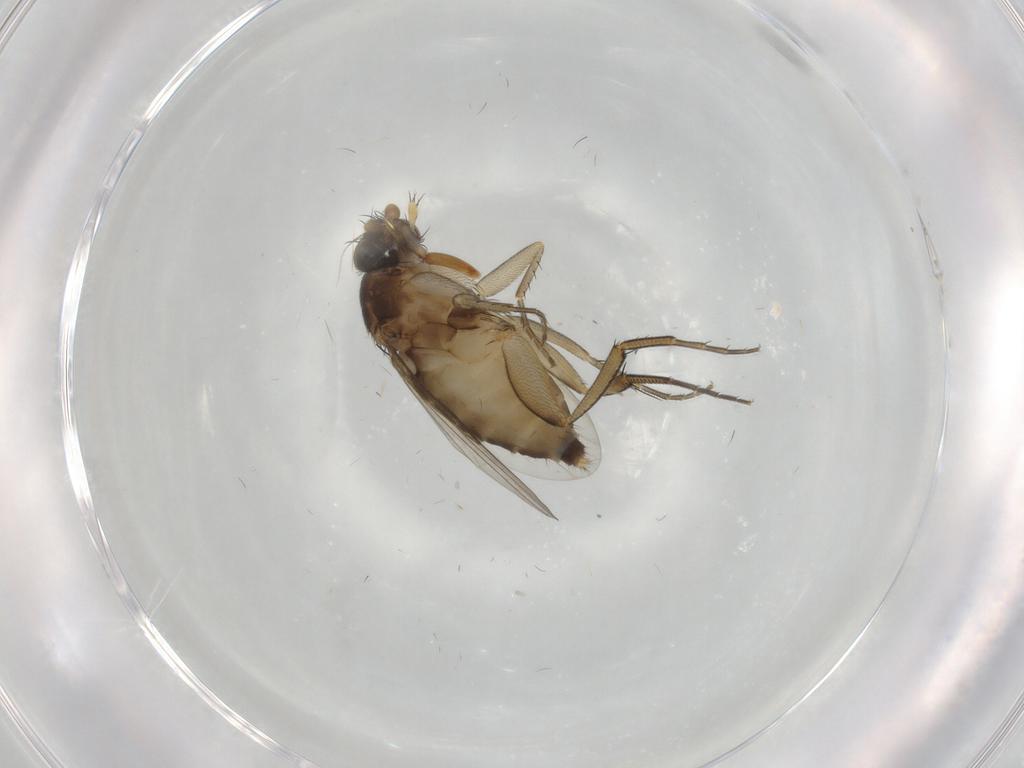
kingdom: Animalia
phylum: Arthropoda
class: Insecta
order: Diptera
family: Phoridae
